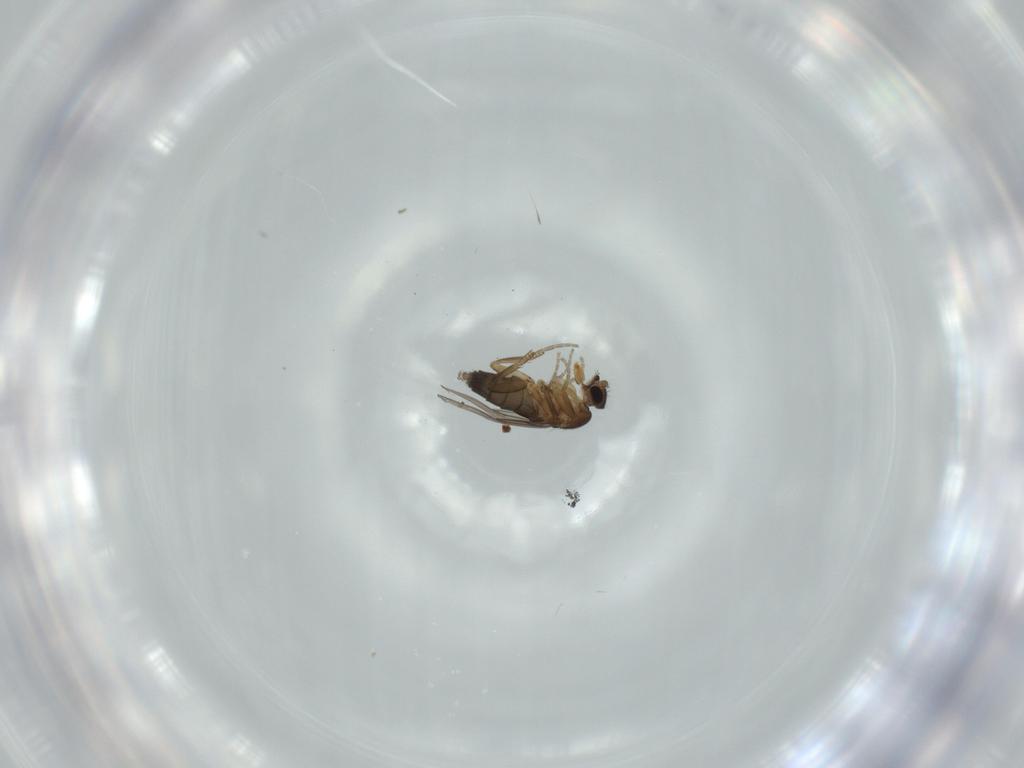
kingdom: Animalia
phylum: Arthropoda
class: Insecta
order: Diptera
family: Phoridae
